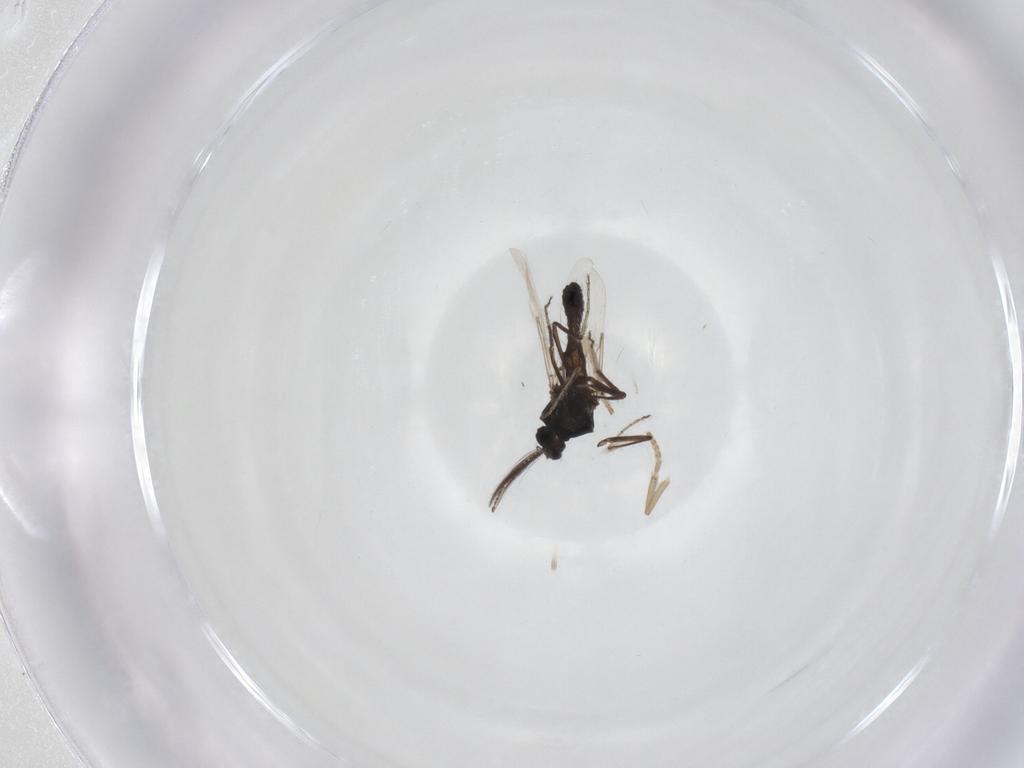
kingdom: Animalia
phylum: Arthropoda
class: Insecta
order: Diptera
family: Ceratopogonidae
